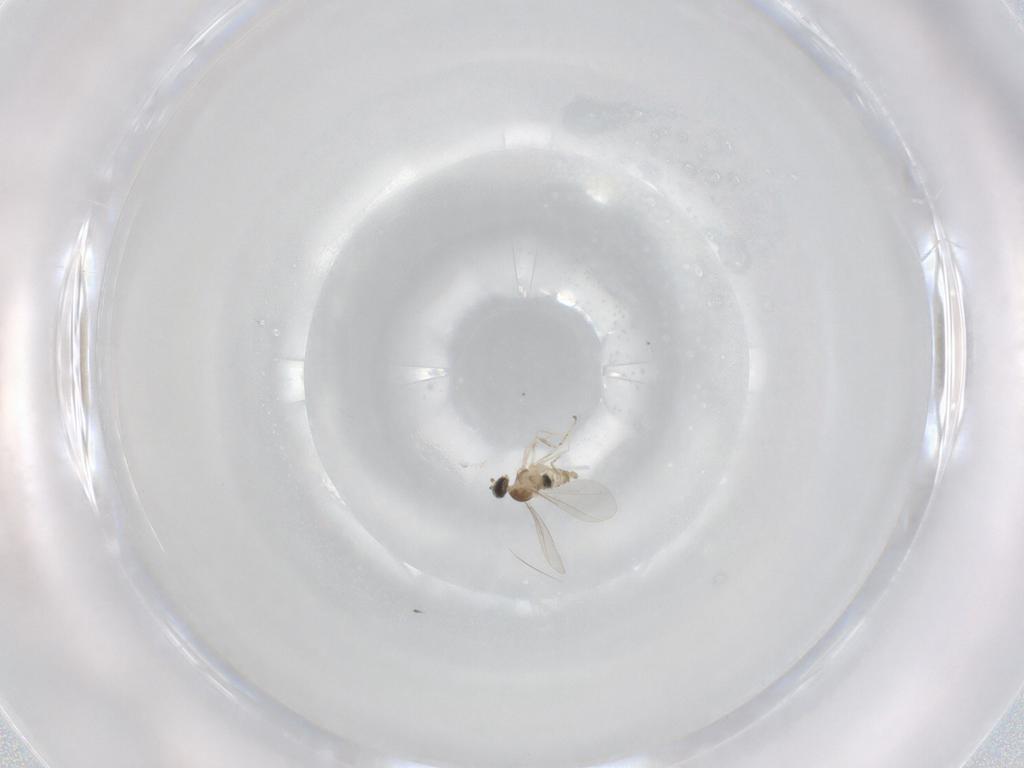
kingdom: Animalia
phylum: Arthropoda
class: Insecta
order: Diptera
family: Cecidomyiidae
